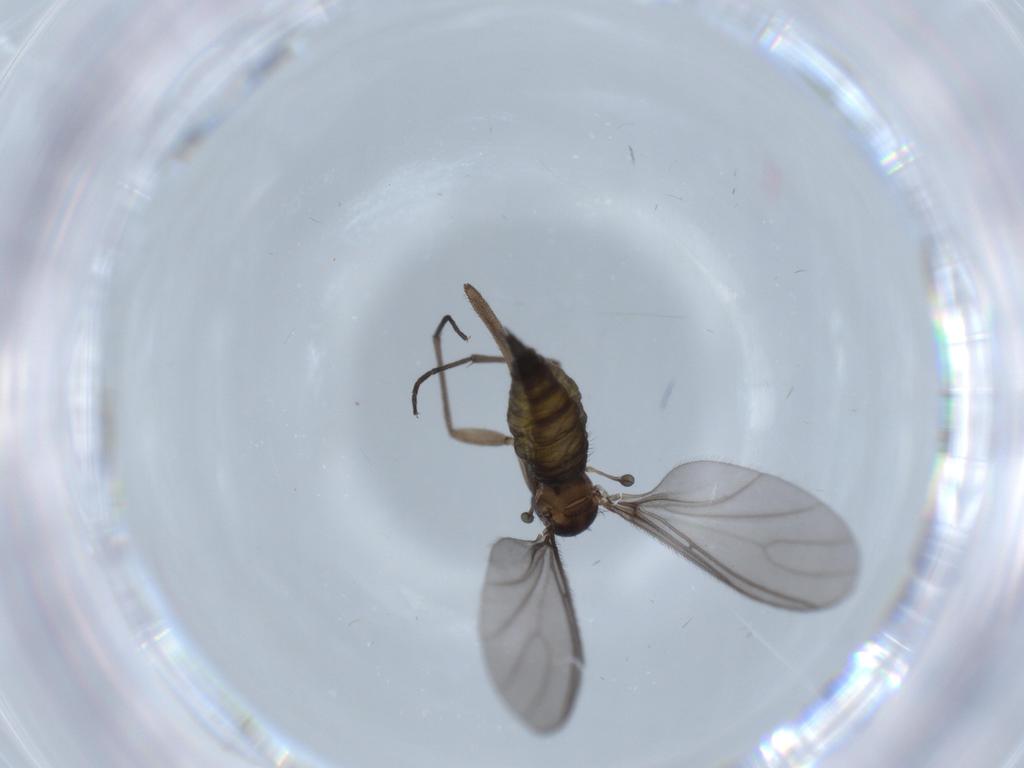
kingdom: Animalia
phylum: Arthropoda
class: Insecta
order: Diptera
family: Sciaridae
